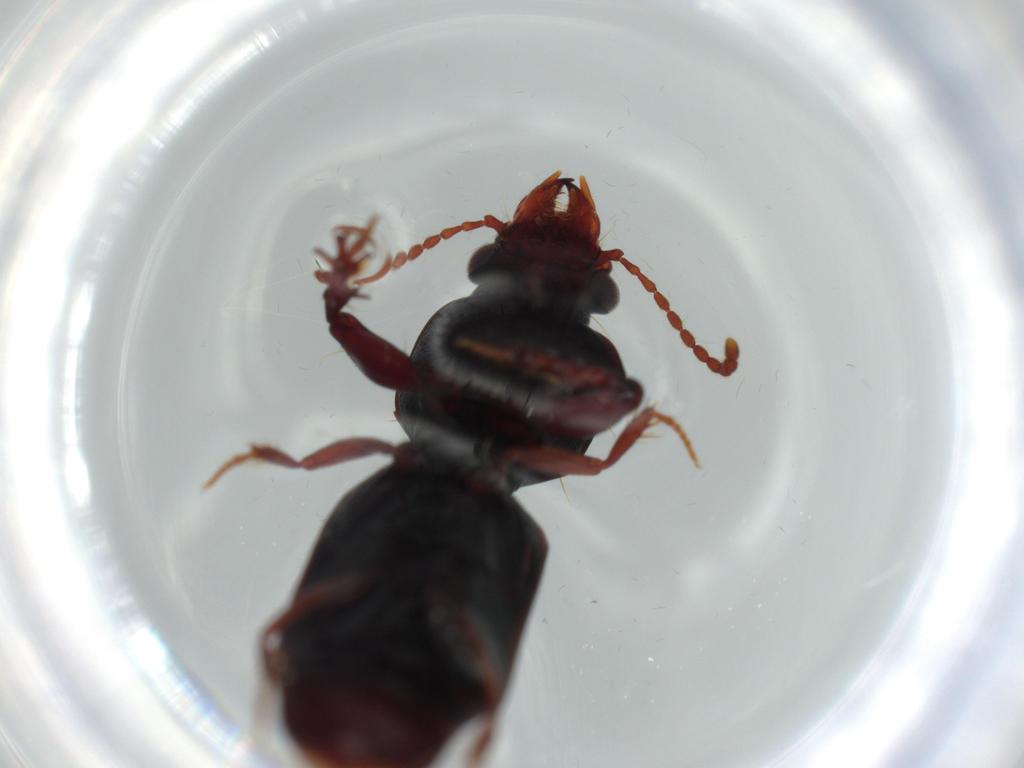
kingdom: Animalia
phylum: Arthropoda
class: Insecta
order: Coleoptera
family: Carabidae
